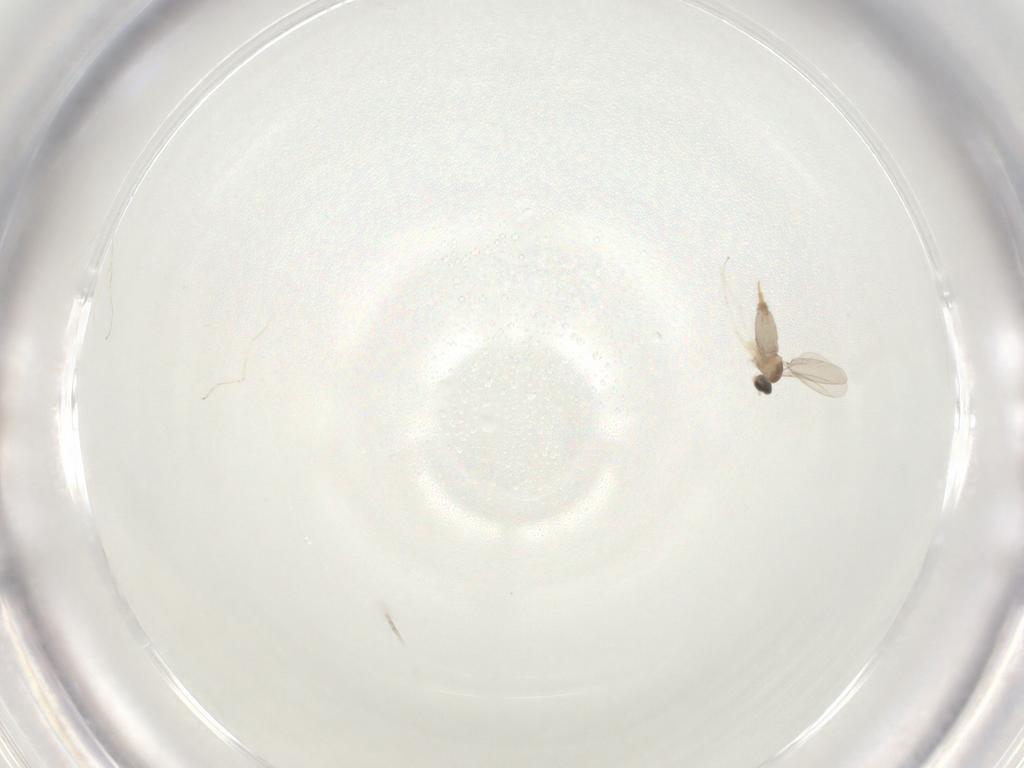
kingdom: Animalia
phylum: Arthropoda
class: Insecta
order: Diptera
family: Cecidomyiidae
